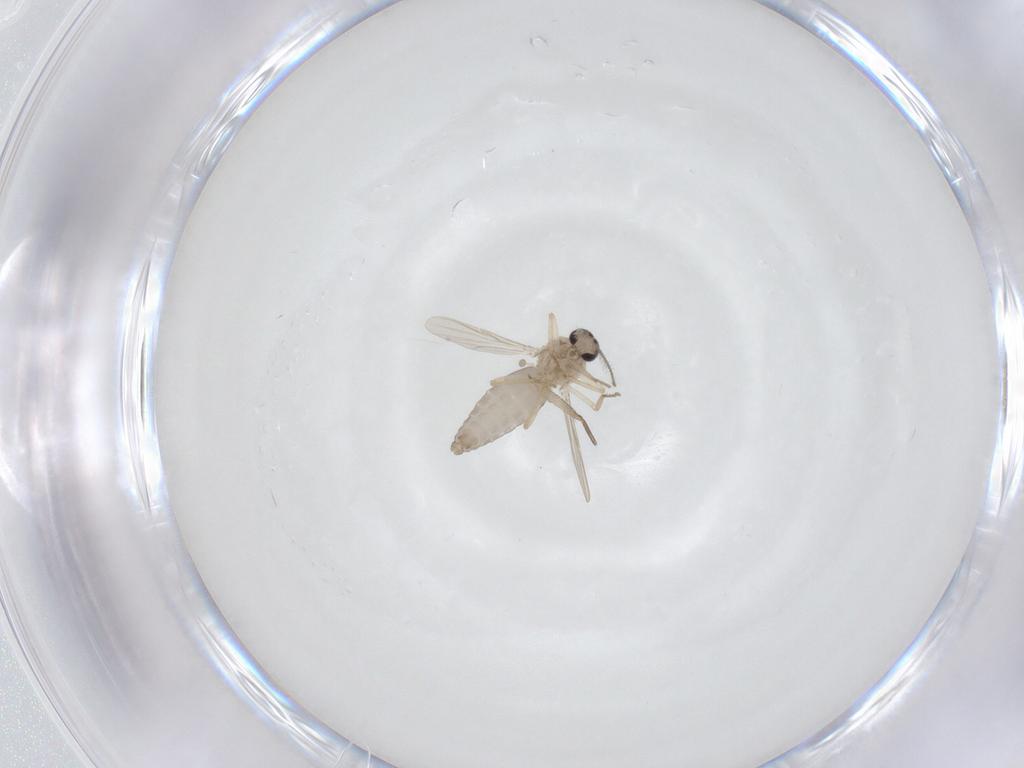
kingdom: Animalia
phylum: Arthropoda
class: Insecta
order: Diptera
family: Ceratopogonidae
